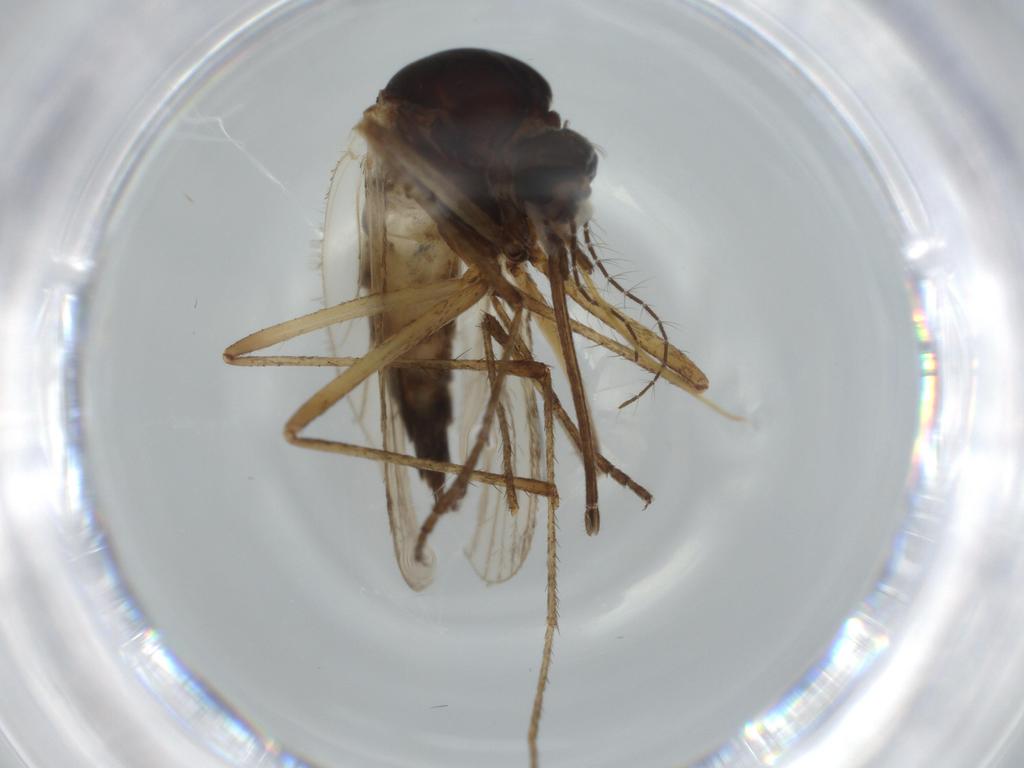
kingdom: Animalia
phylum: Arthropoda
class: Insecta
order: Diptera
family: Culicidae
